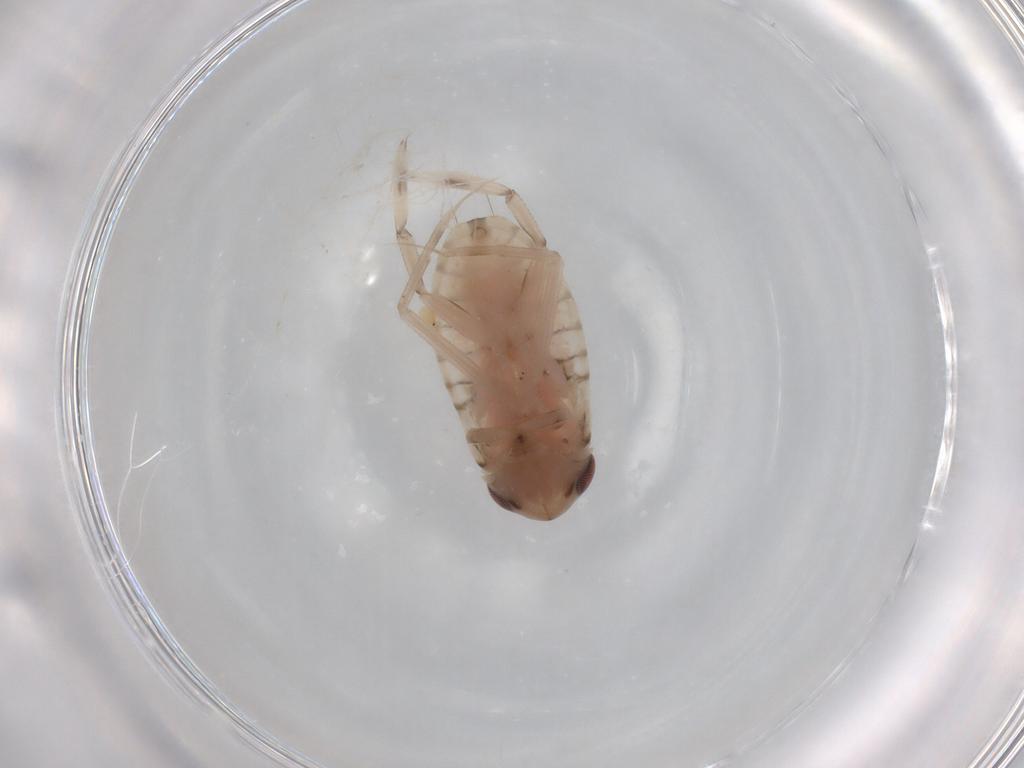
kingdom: Animalia
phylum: Arthropoda
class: Insecta
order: Hemiptera
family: Corixidae
